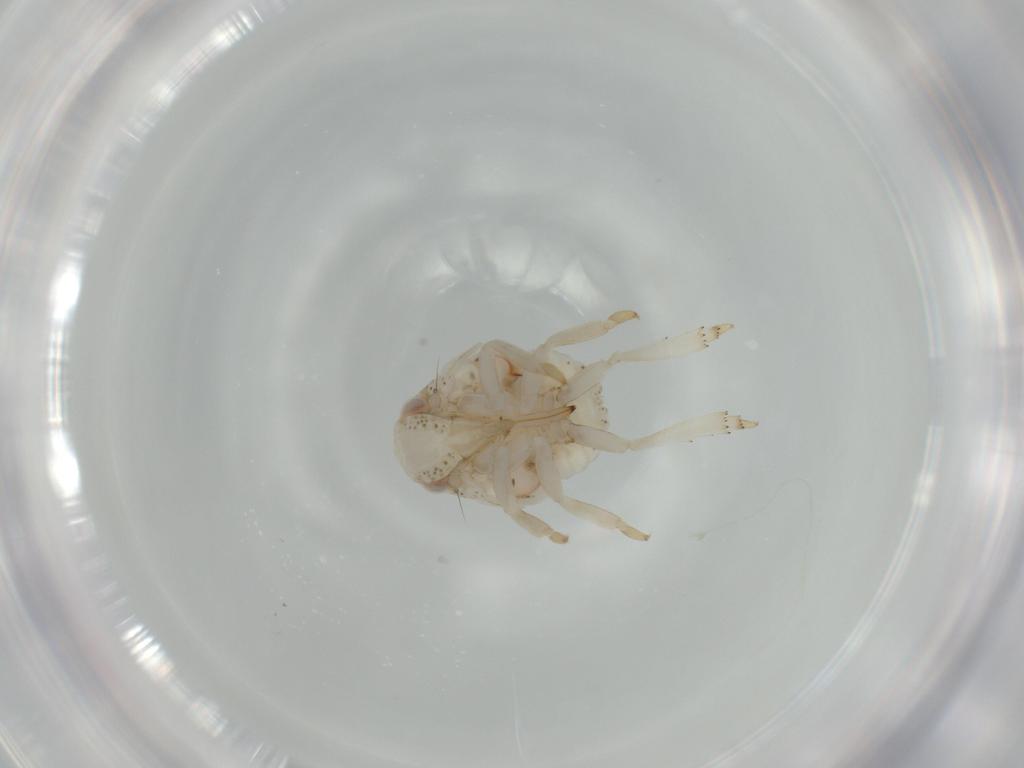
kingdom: Animalia
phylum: Arthropoda
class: Insecta
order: Hemiptera
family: Acanaloniidae
